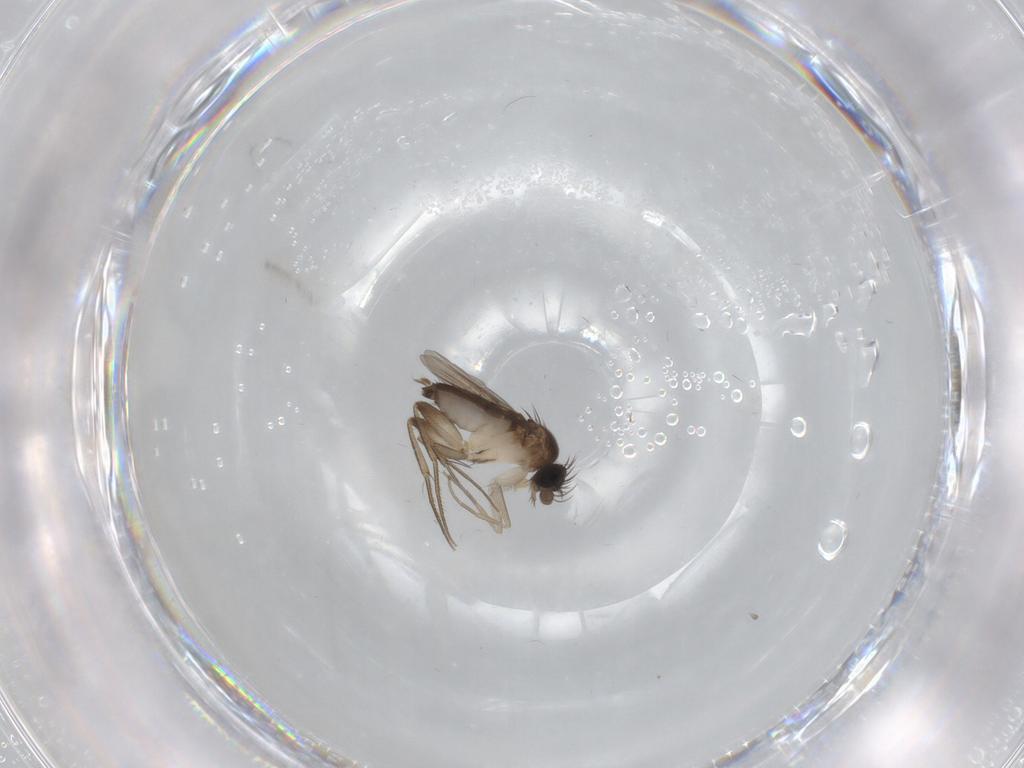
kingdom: Animalia
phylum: Arthropoda
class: Insecta
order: Diptera
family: Phoridae
